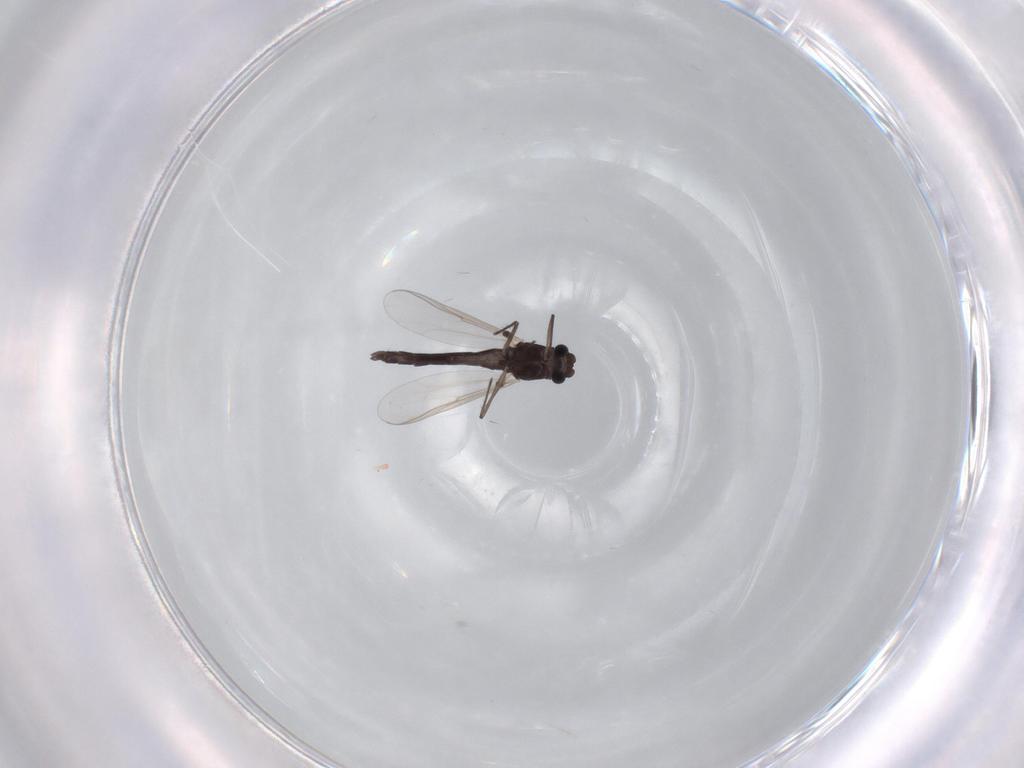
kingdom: Animalia
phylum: Arthropoda
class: Insecta
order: Diptera
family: Chironomidae
